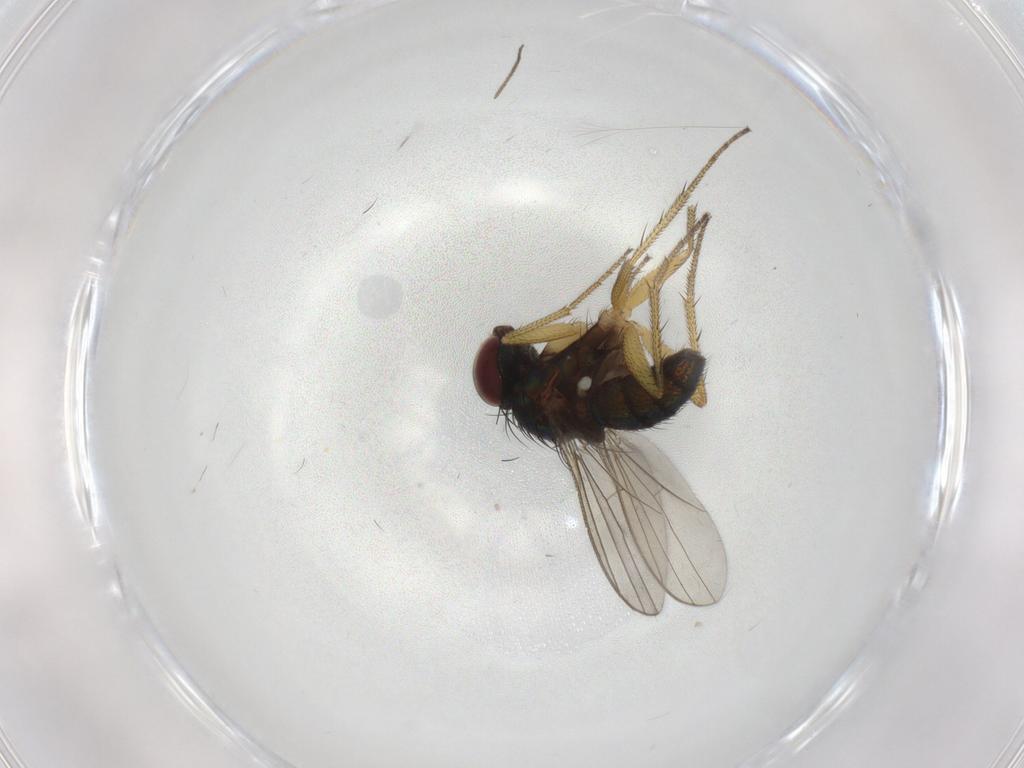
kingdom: Animalia
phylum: Arthropoda
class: Insecta
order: Diptera
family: Dolichopodidae
